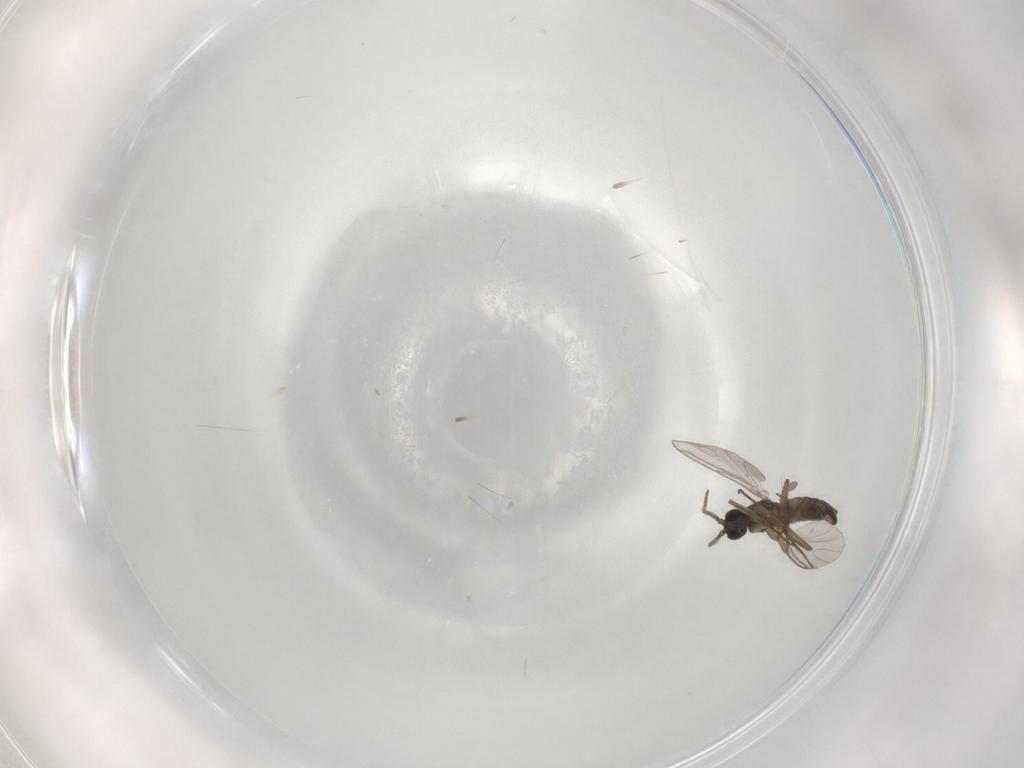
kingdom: Animalia
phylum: Arthropoda
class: Insecta
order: Diptera
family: Sciaridae
